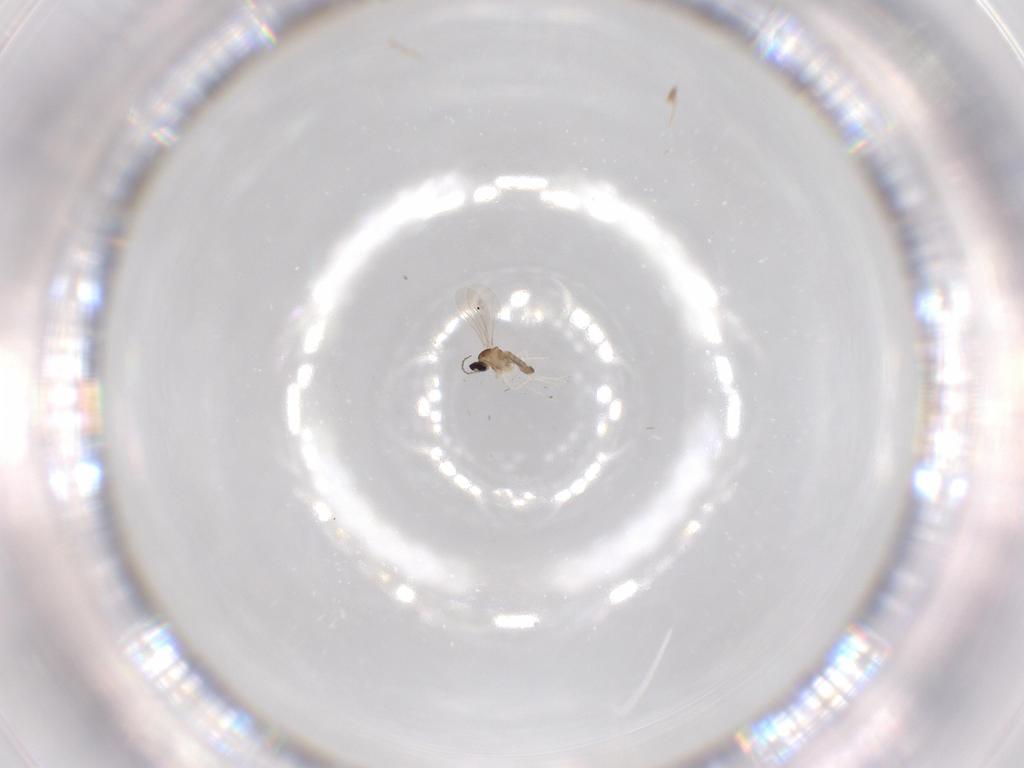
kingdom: Animalia
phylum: Arthropoda
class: Insecta
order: Diptera
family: Cecidomyiidae
